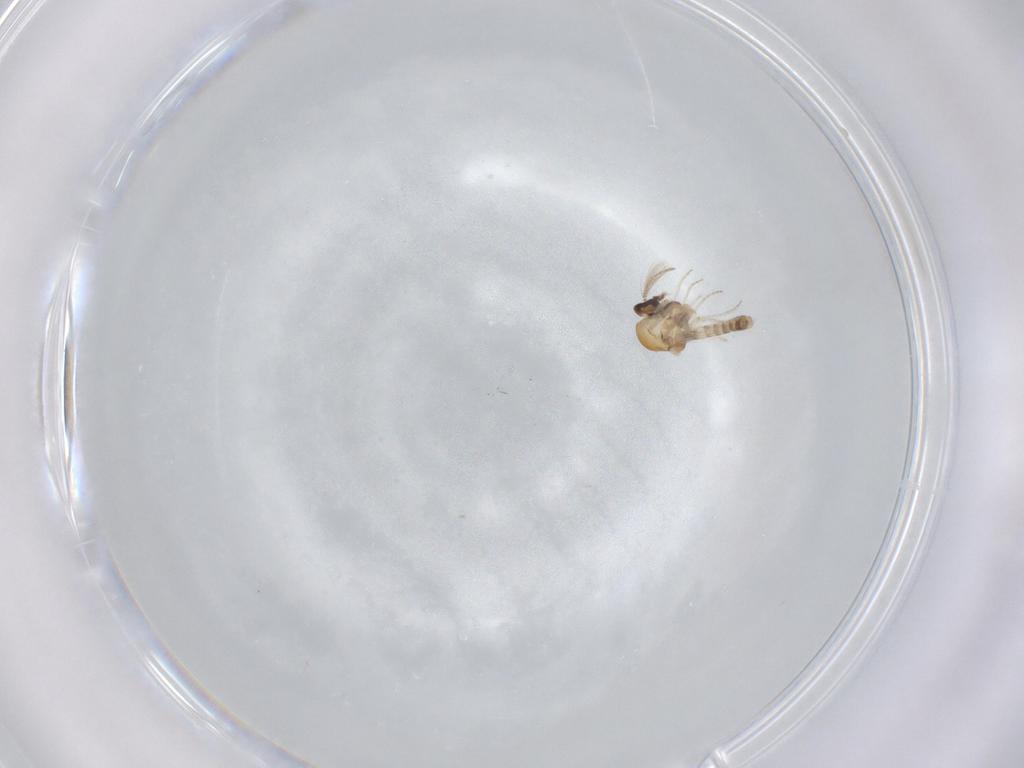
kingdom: Animalia
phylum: Arthropoda
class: Insecta
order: Diptera
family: Ceratopogonidae
